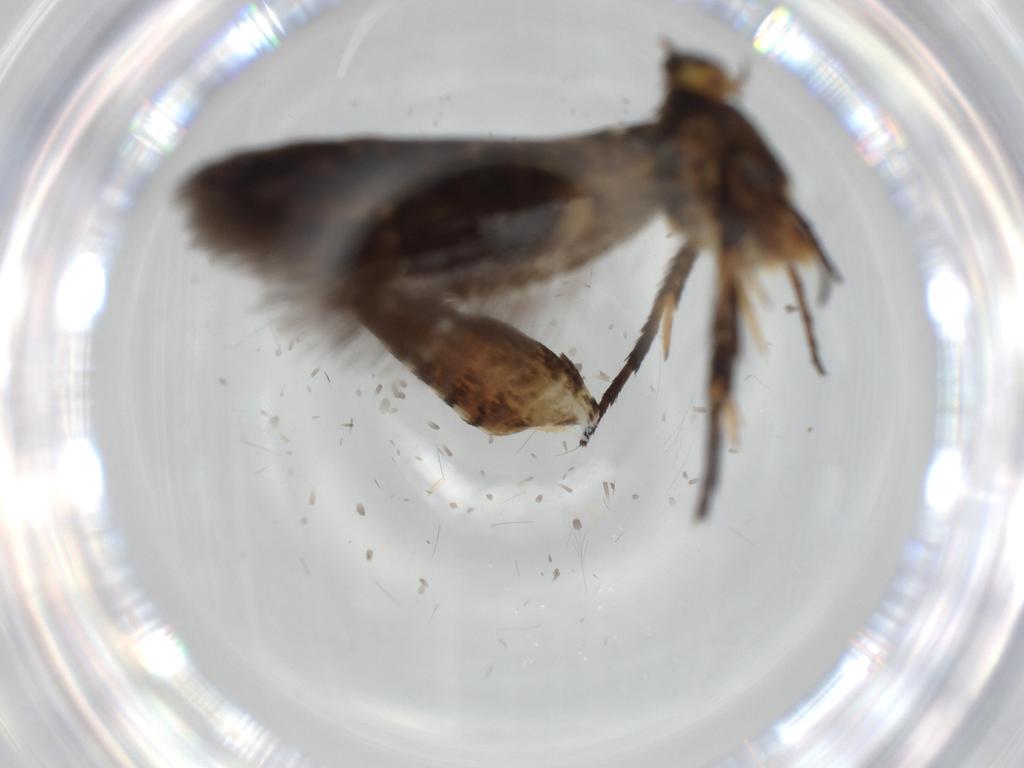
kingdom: Animalia
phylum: Arthropoda
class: Insecta
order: Lepidoptera
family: Heliodinidae
